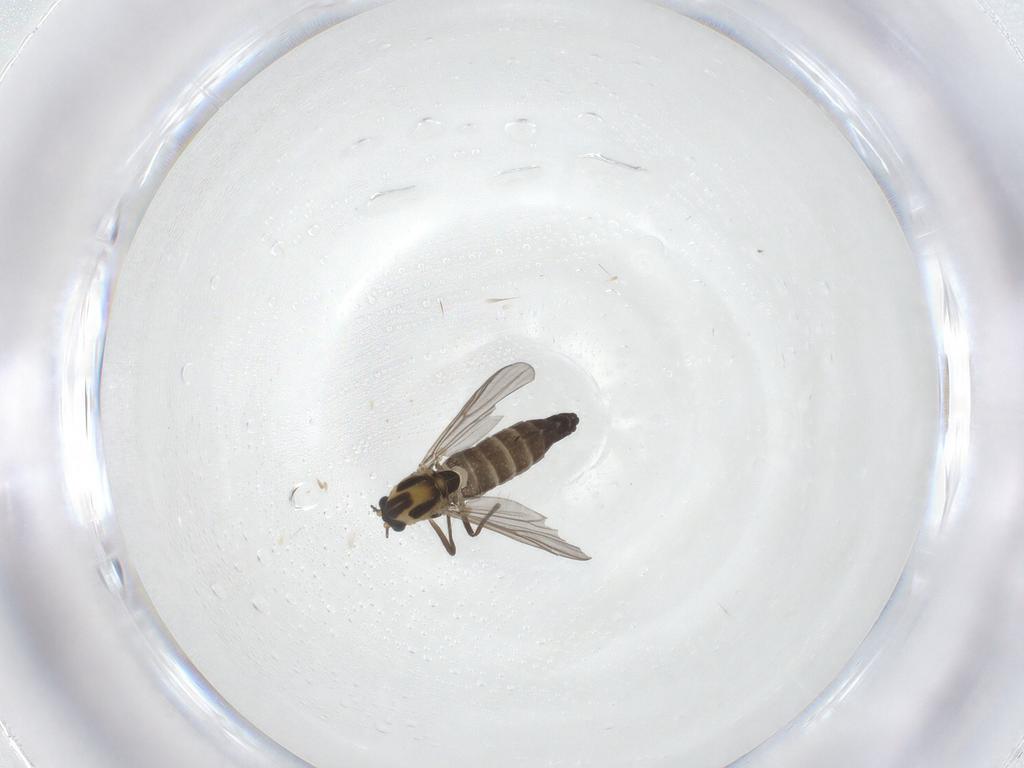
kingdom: Animalia
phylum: Arthropoda
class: Insecta
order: Diptera
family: Chironomidae
